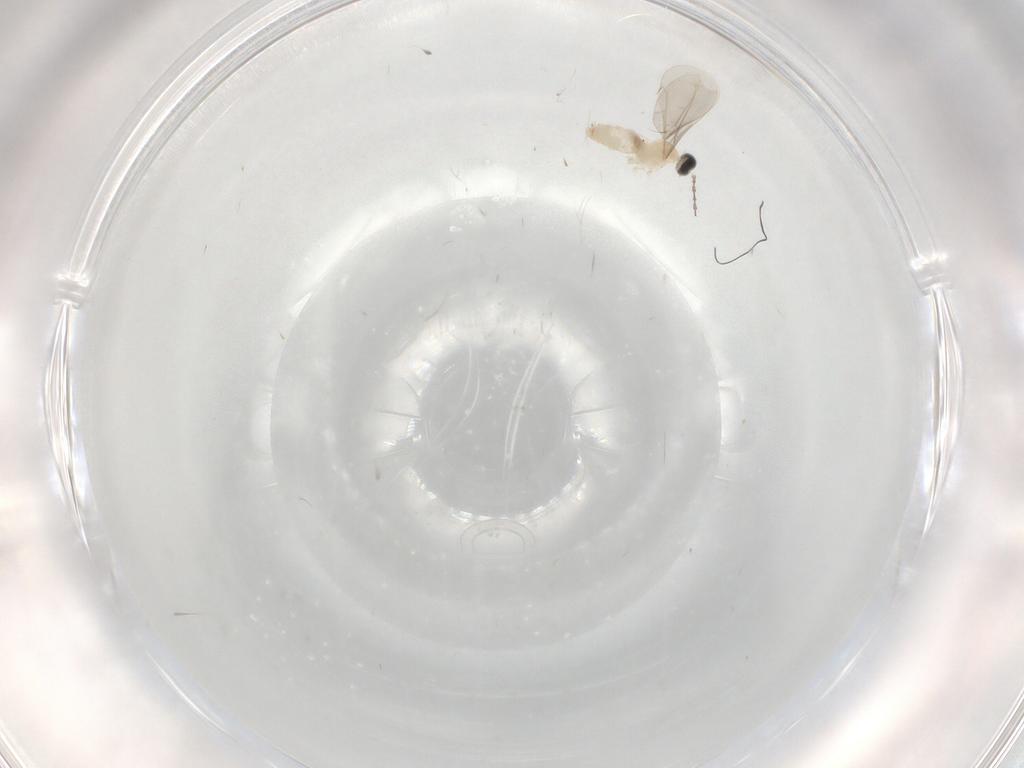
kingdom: Animalia
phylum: Arthropoda
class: Insecta
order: Diptera
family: Cecidomyiidae
